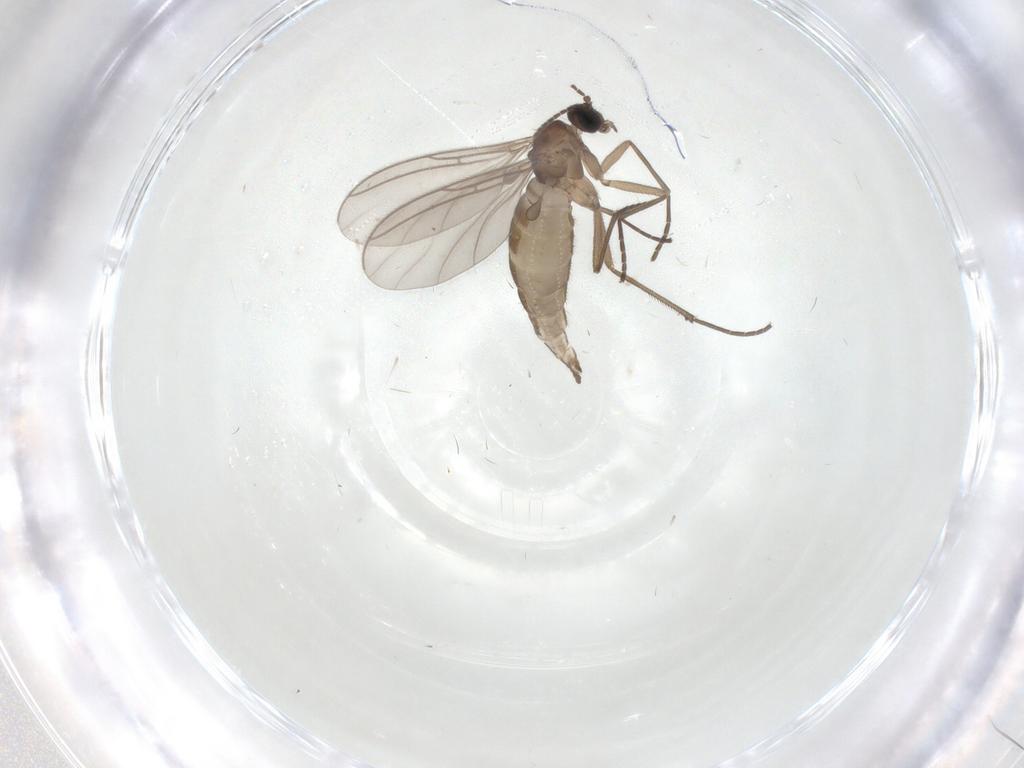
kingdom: Animalia
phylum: Arthropoda
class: Insecta
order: Diptera
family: Sciaridae
